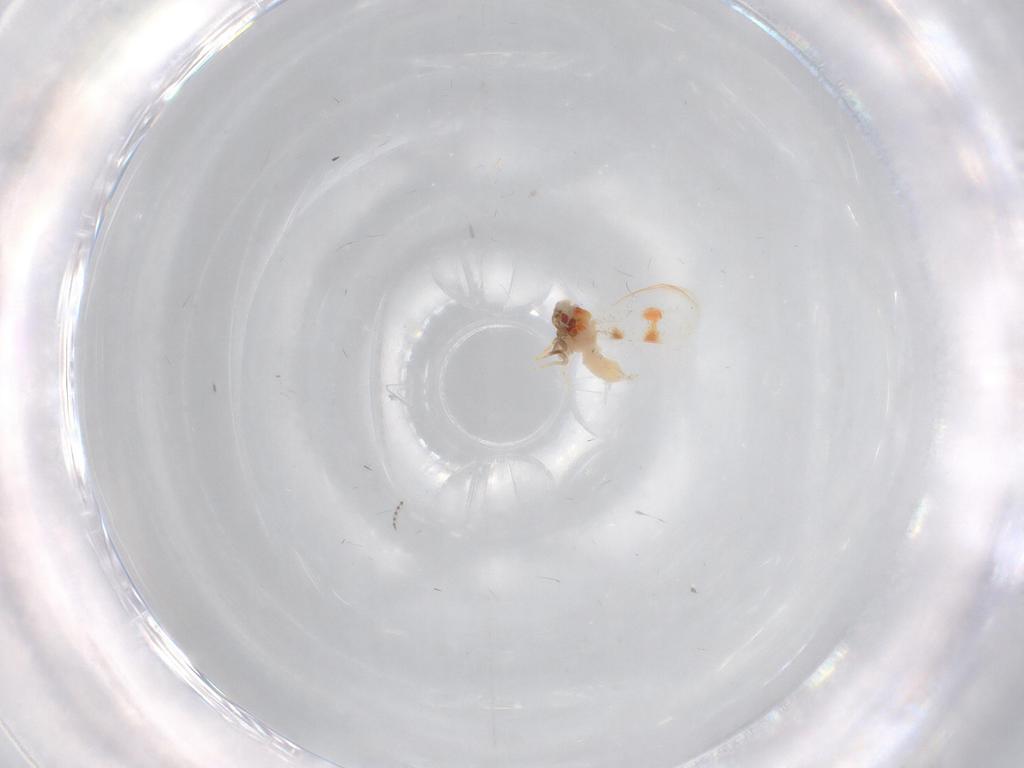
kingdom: Animalia
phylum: Arthropoda
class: Insecta
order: Hemiptera
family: Aleyrodidae
